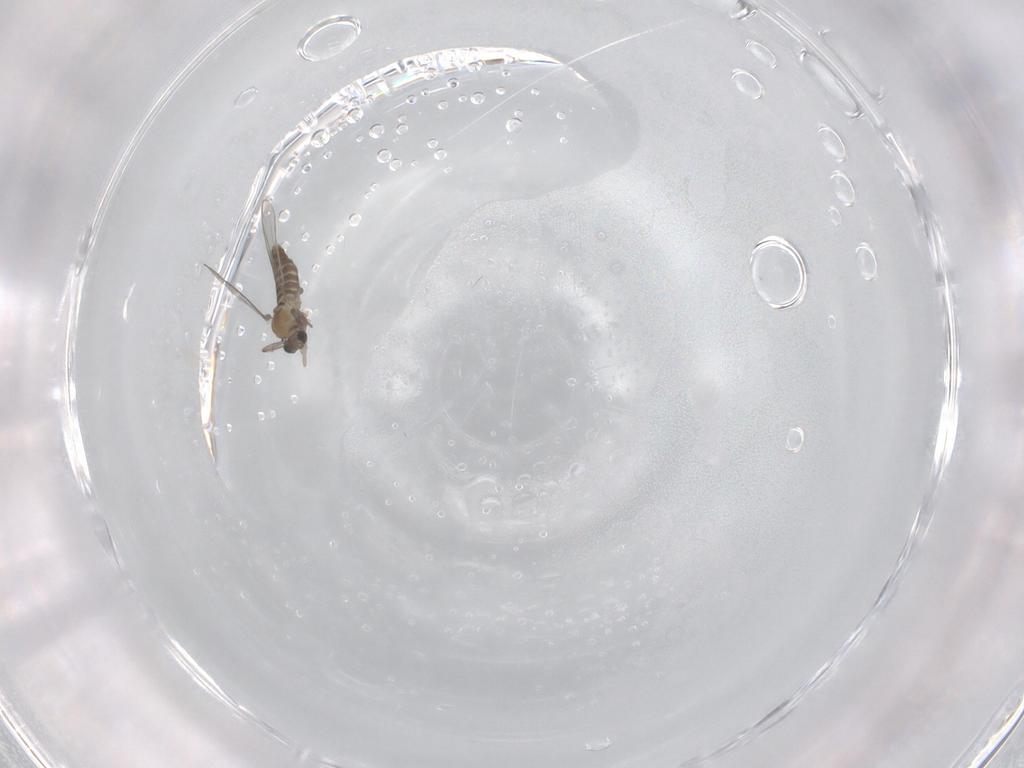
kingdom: Animalia
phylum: Arthropoda
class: Insecta
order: Diptera
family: Chironomidae
